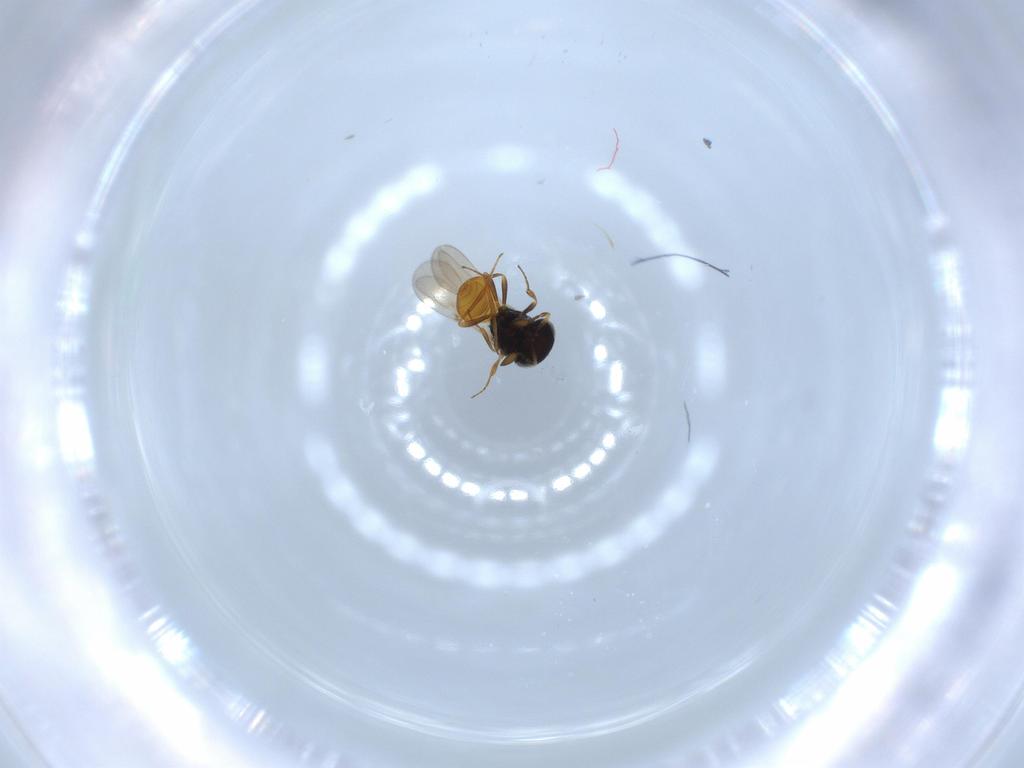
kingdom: Animalia
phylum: Arthropoda
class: Insecta
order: Hymenoptera
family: Scelionidae
